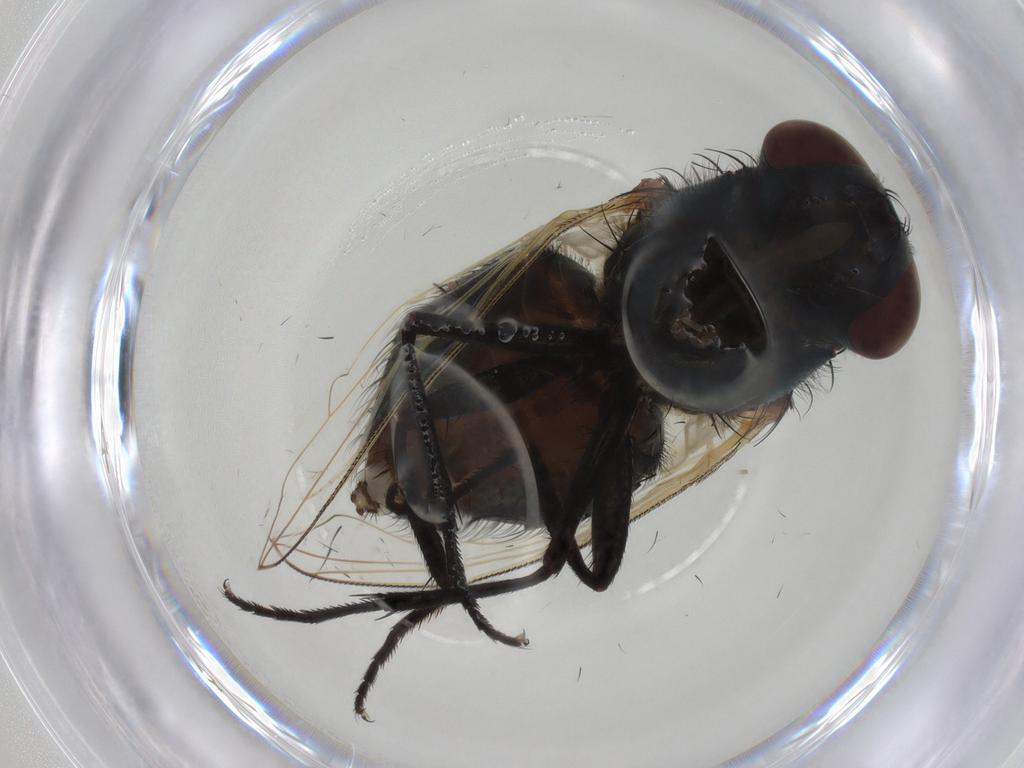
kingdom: Animalia
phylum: Arthropoda
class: Insecta
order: Diptera
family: Muscidae
